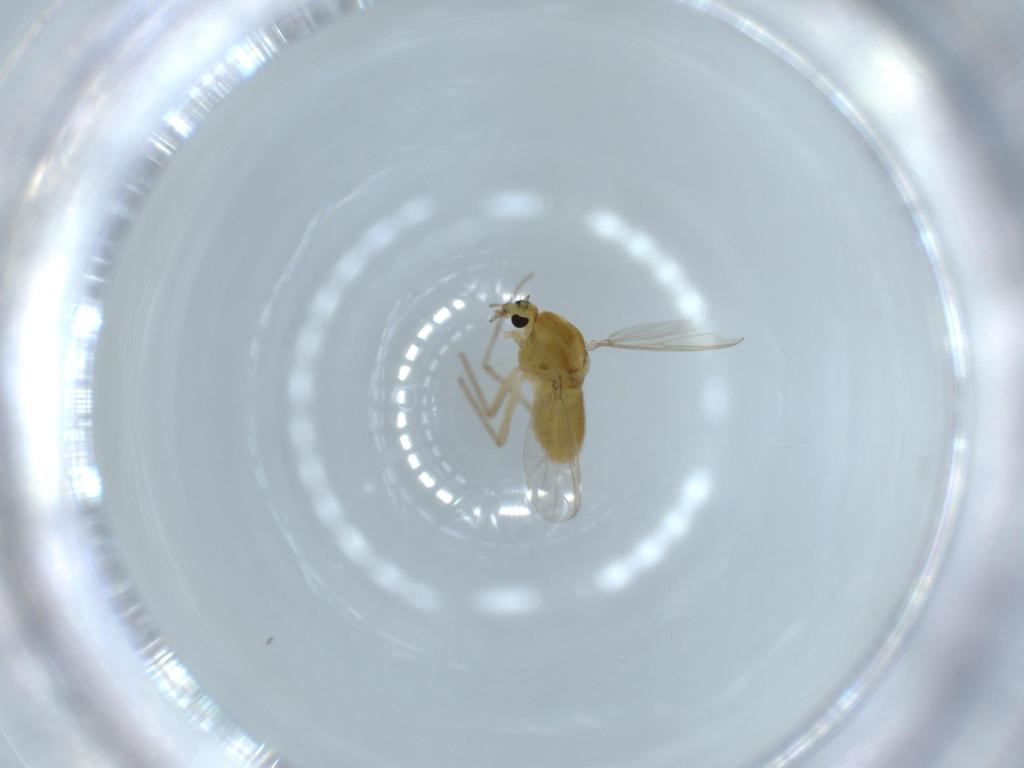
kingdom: Animalia
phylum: Arthropoda
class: Insecta
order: Diptera
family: Chironomidae
